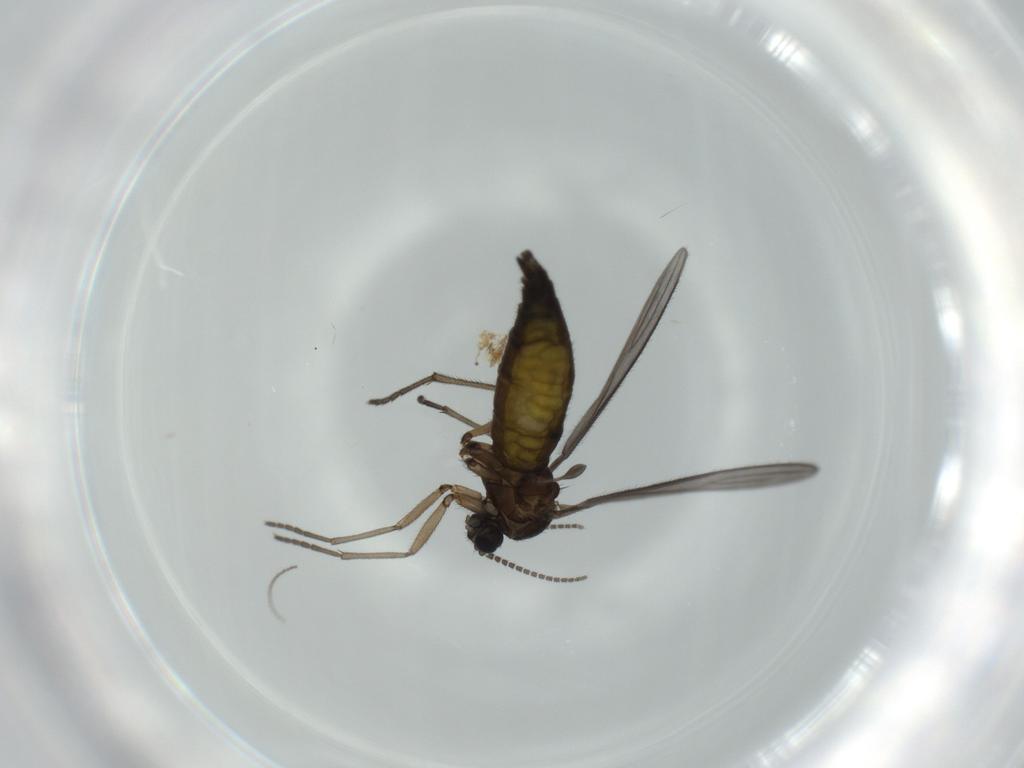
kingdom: Animalia
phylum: Arthropoda
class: Insecta
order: Diptera
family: Sciaridae
